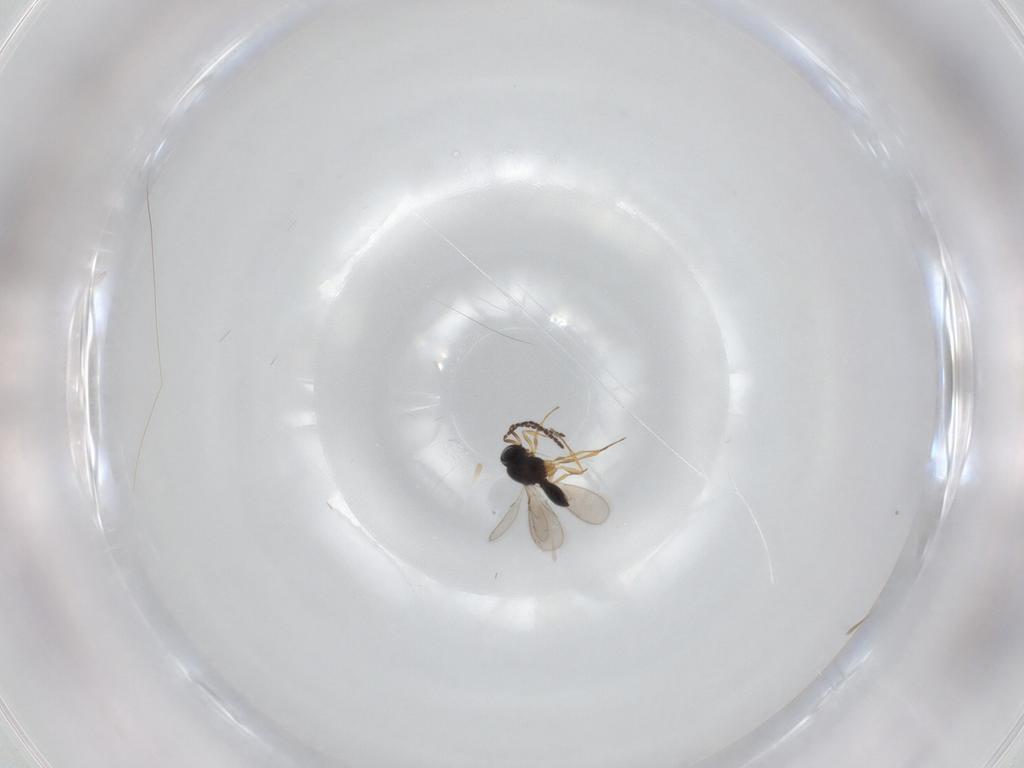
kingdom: Animalia
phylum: Arthropoda
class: Insecta
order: Hymenoptera
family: Scelionidae
